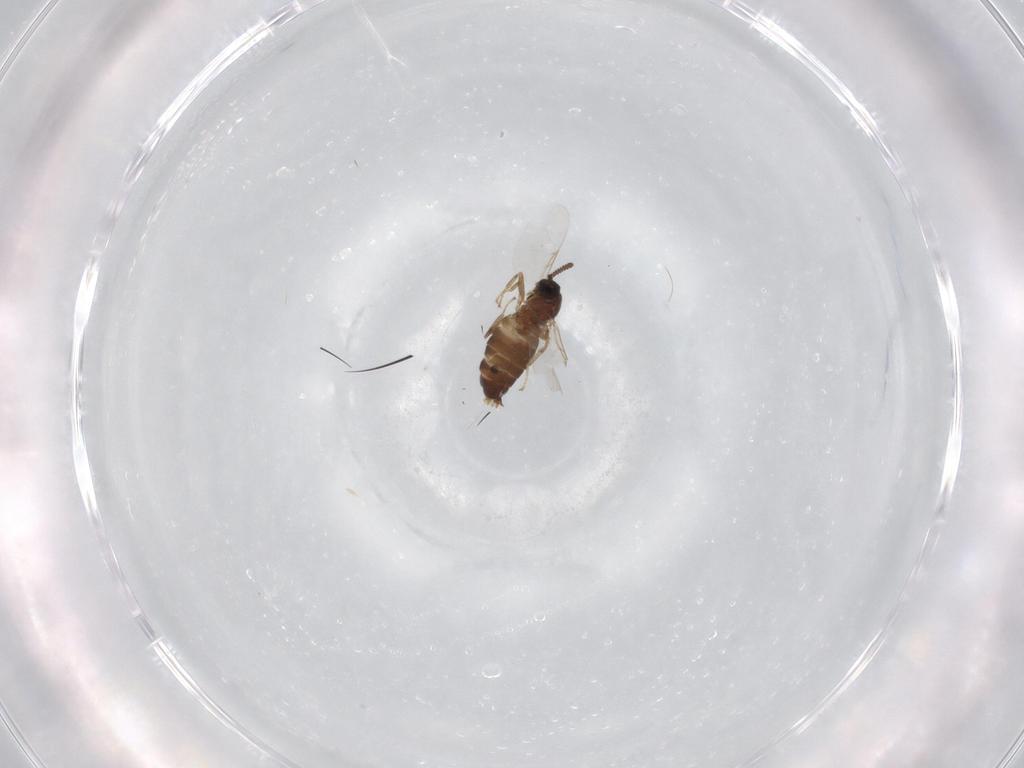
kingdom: Animalia
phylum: Arthropoda
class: Insecta
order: Diptera
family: Scatopsidae
